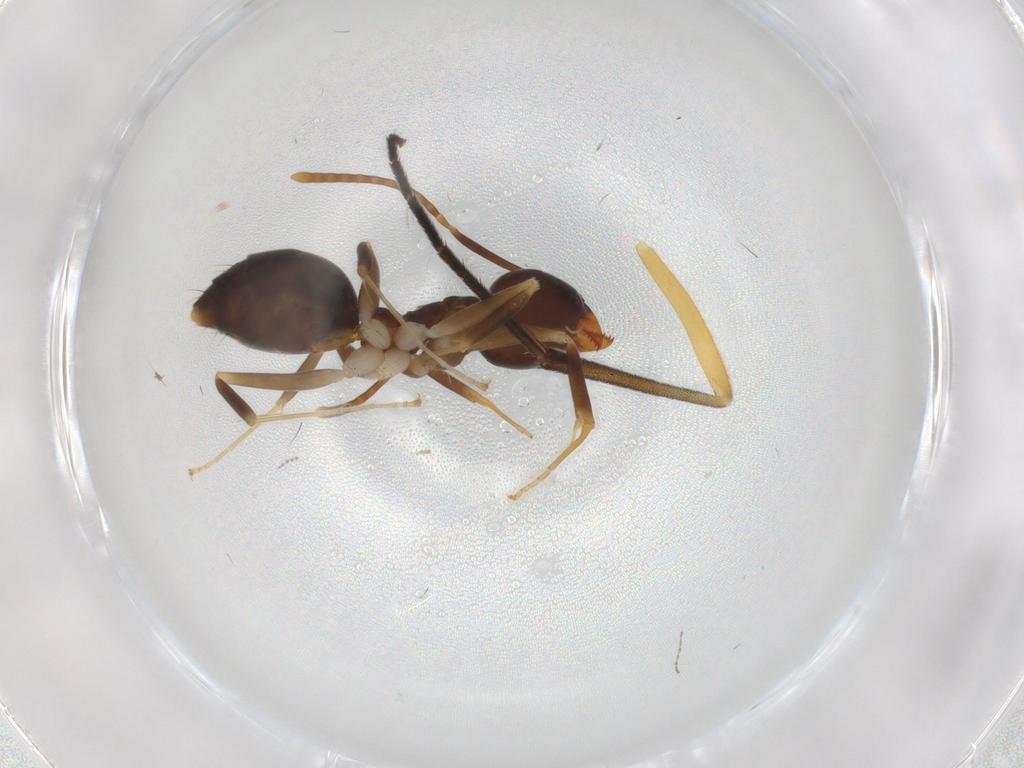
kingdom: Animalia
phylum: Arthropoda
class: Insecta
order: Hymenoptera
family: Formicidae
